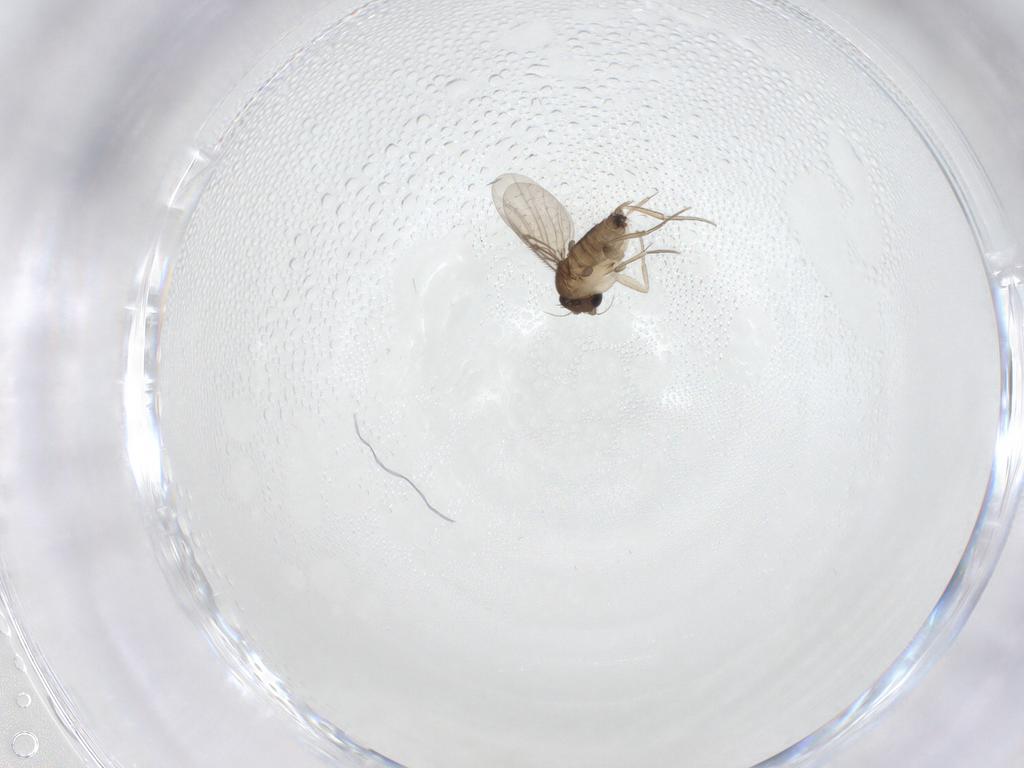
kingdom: Animalia
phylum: Arthropoda
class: Insecta
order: Diptera
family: Phoridae
